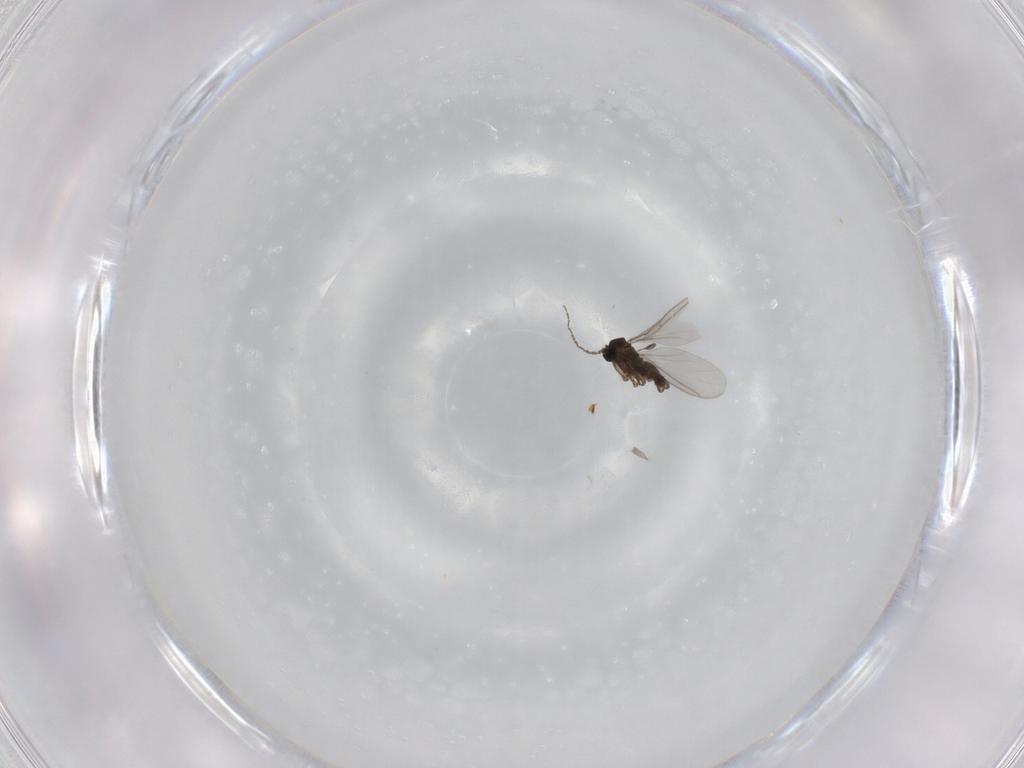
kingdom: Animalia
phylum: Arthropoda
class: Insecta
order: Diptera
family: Sciaridae
